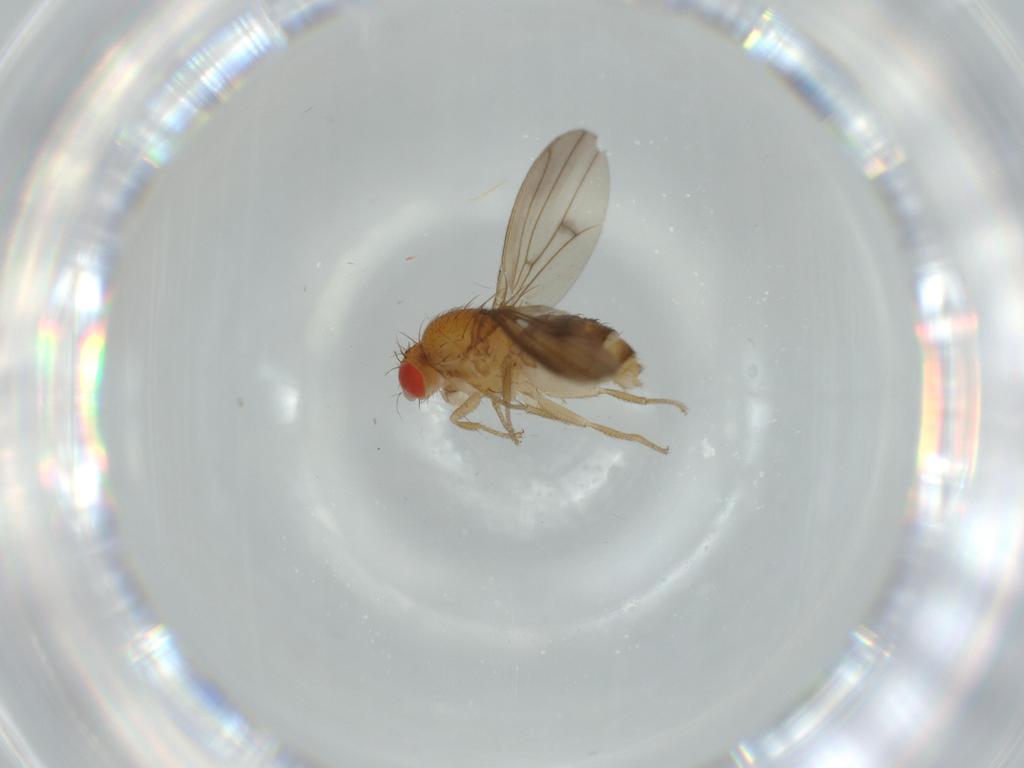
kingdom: Animalia
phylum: Arthropoda
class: Insecta
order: Diptera
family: Drosophilidae
